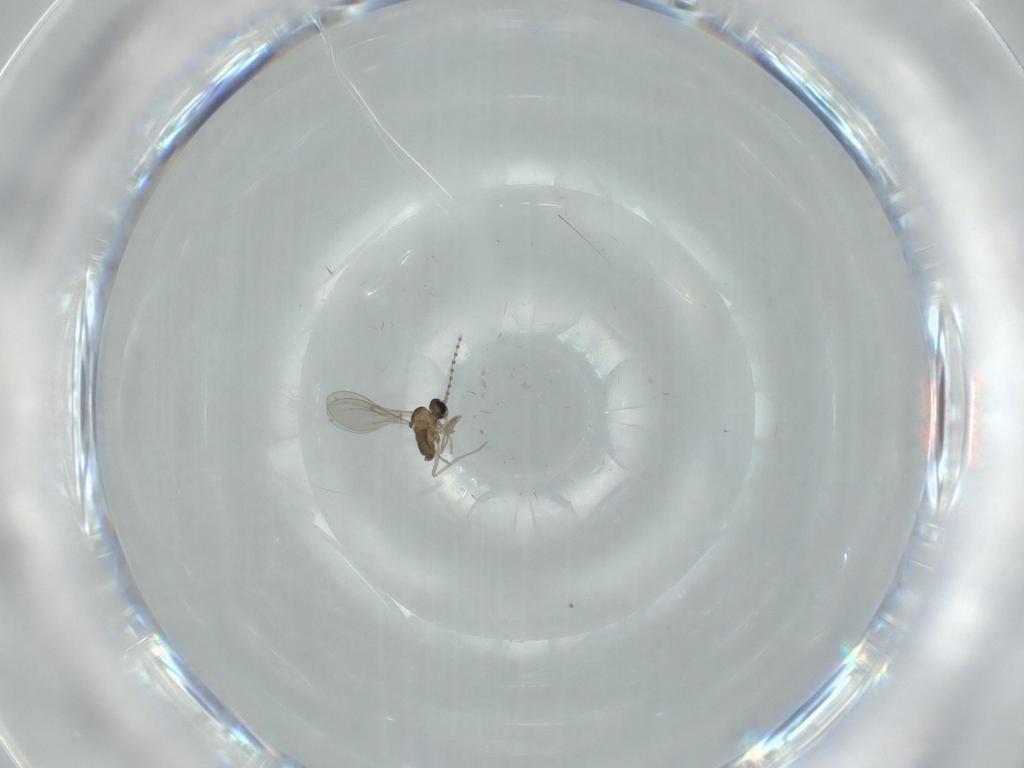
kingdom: Animalia
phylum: Arthropoda
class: Insecta
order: Diptera
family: Cecidomyiidae
